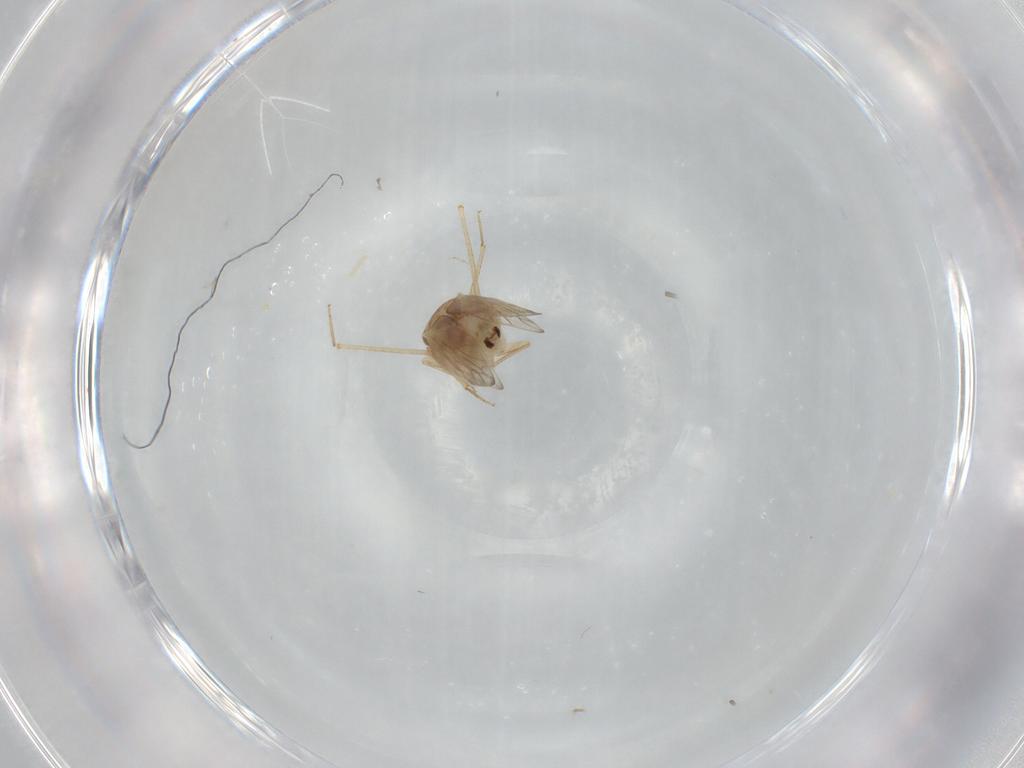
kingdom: Animalia
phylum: Arthropoda
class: Insecta
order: Psocodea
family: Lepidopsocidae
